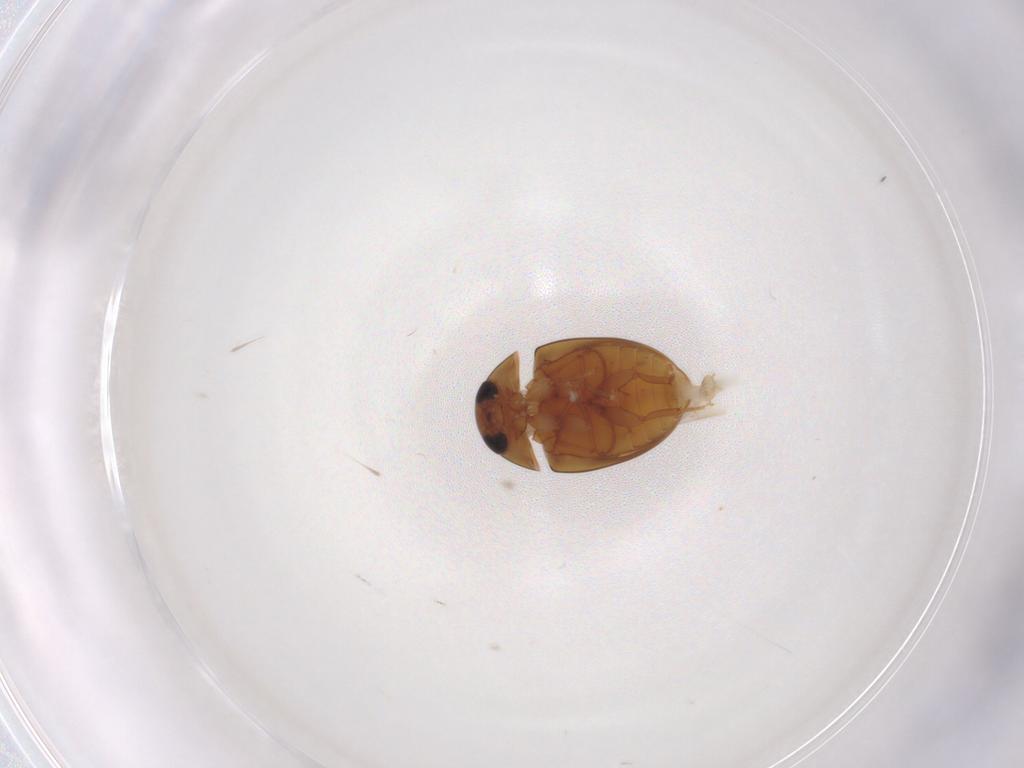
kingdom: Animalia
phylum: Arthropoda
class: Insecta
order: Coleoptera
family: Phalacridae
